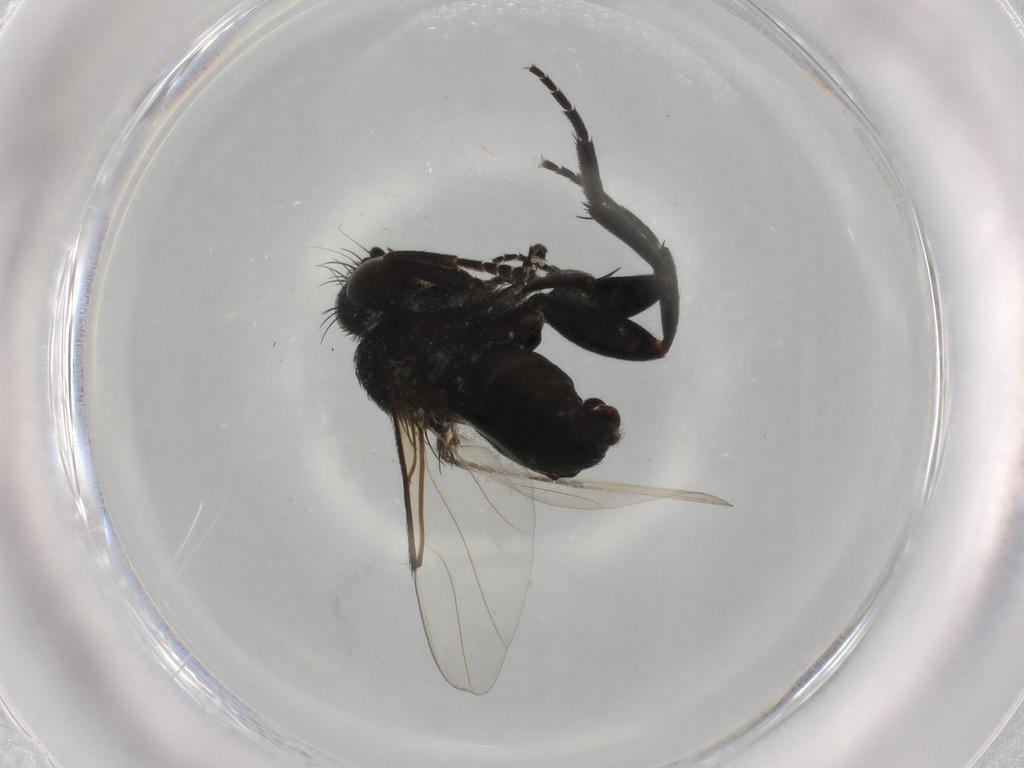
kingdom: Animalia
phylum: Arthropoda
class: Insecta
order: Diptera
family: Phoridae
